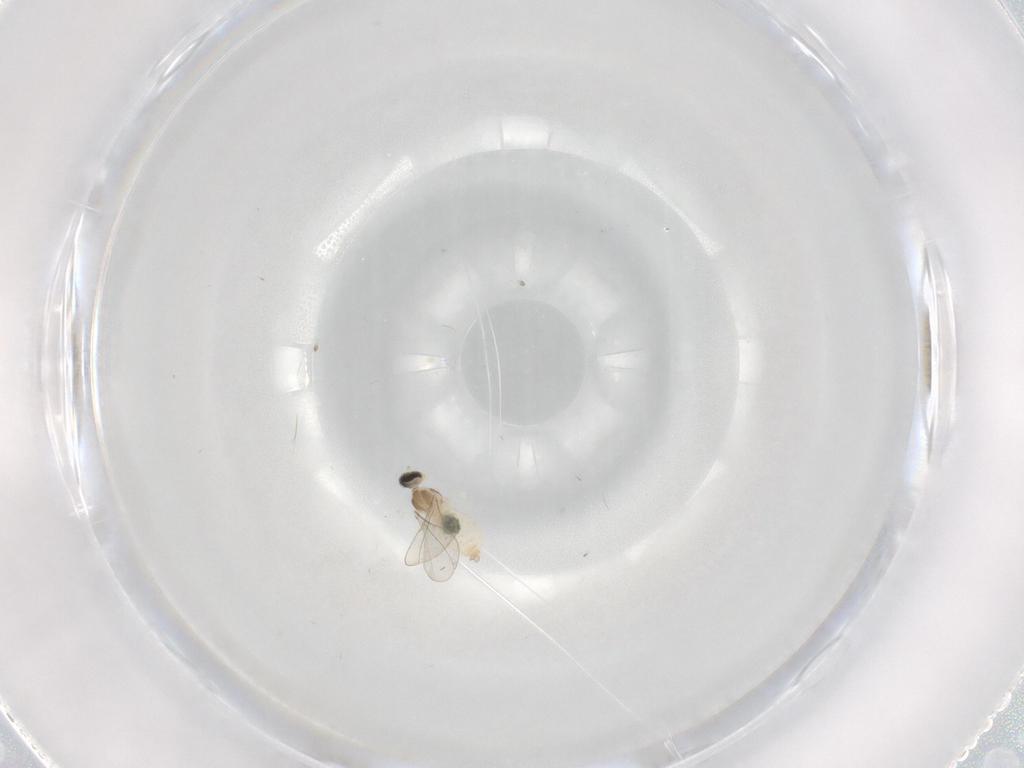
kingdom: Animalia
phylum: Arthropoda
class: Insecta
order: Diptera
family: Cecidomyiidae
